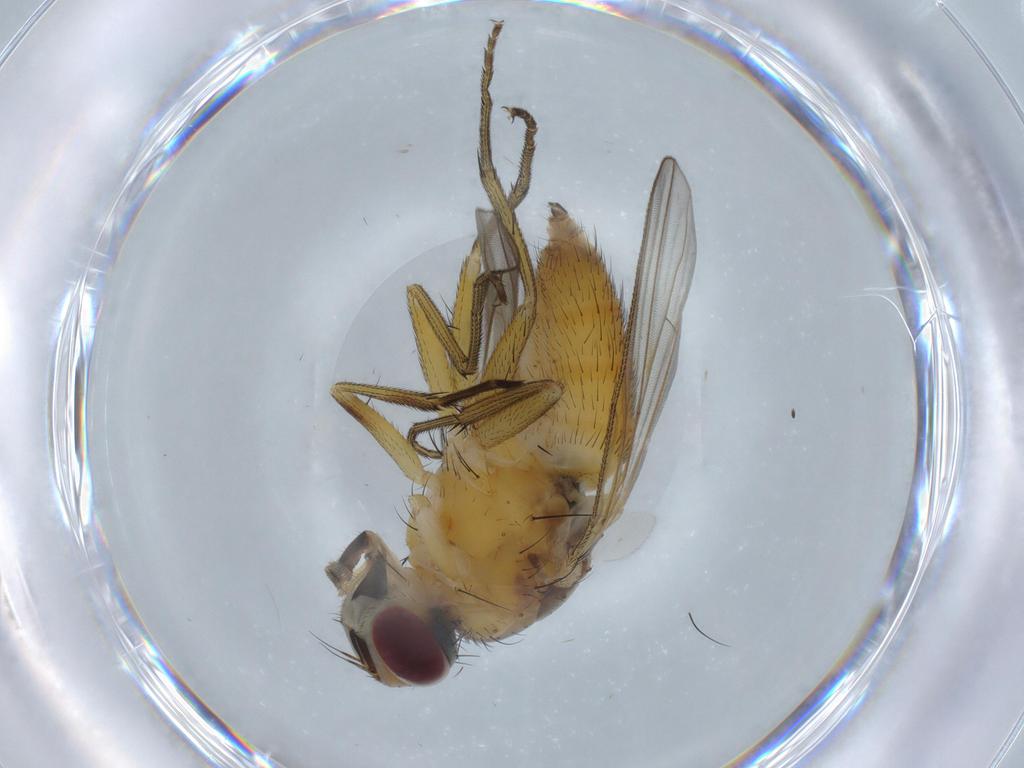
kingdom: Animalia
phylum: Arthropoda
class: Insecta
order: Diptera
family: Muscidae
